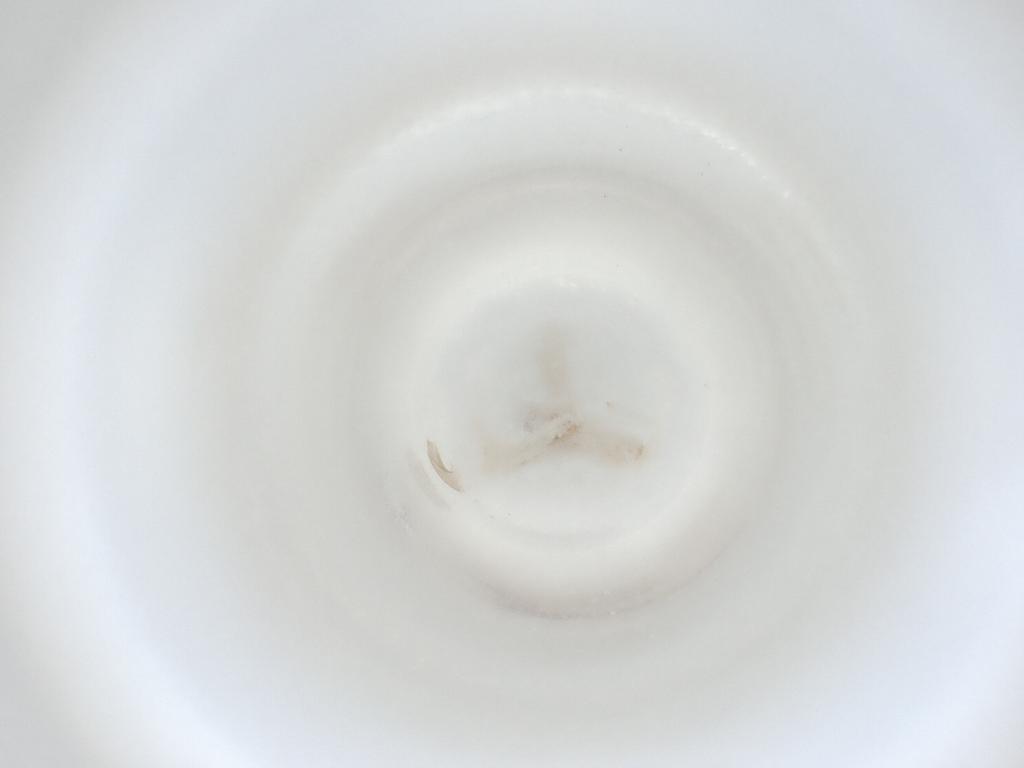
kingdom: Animalia
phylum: Arthropoda
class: Insecta
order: Diptera
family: Cecidomyiidae
